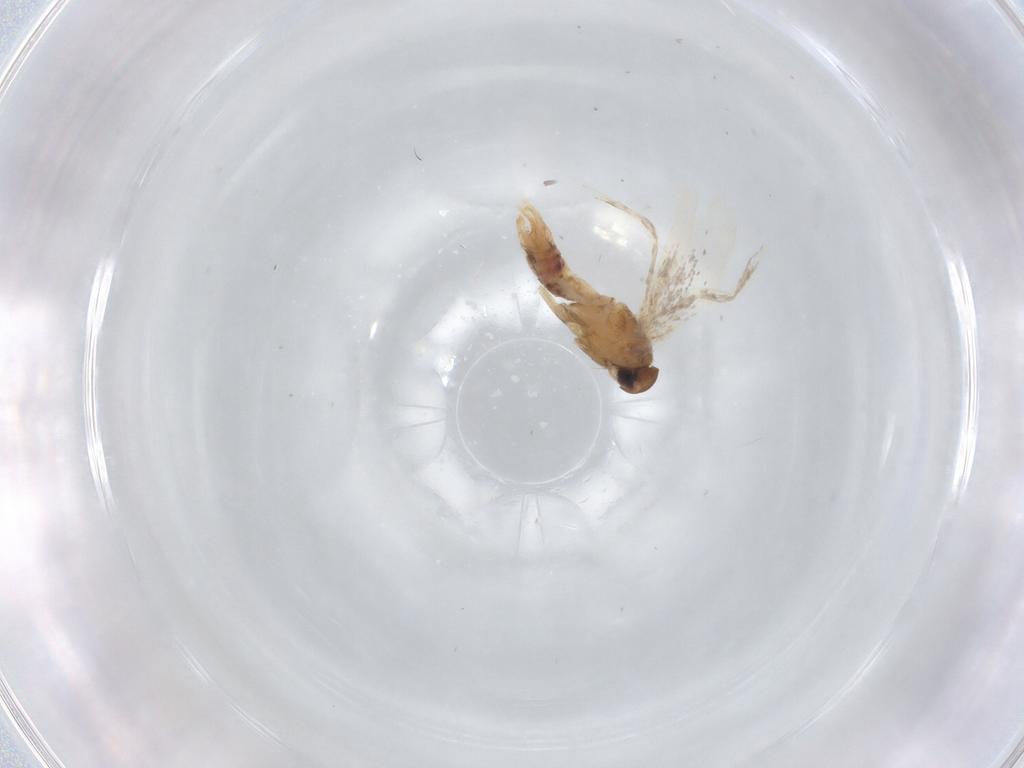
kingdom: Animalia
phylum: Arthropoda
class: Insecta
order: Lepidoptera
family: Gelechiidae
